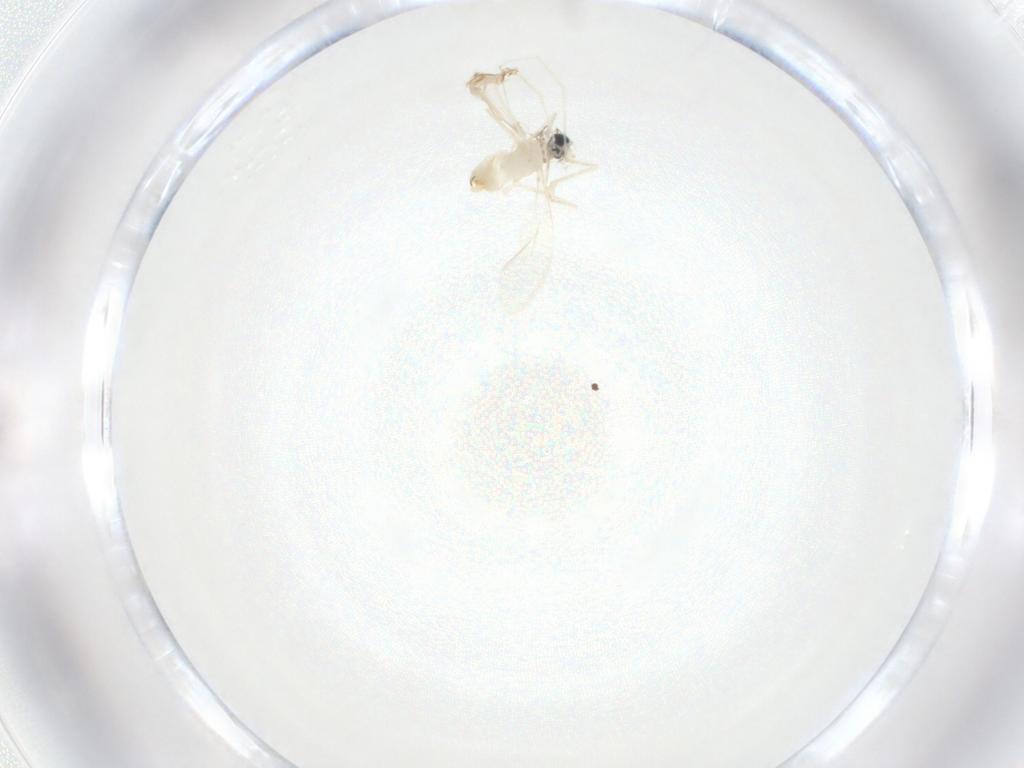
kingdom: Animalia
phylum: Arthropoda
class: Insecta
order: Diptera
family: Cecidomyiidae
